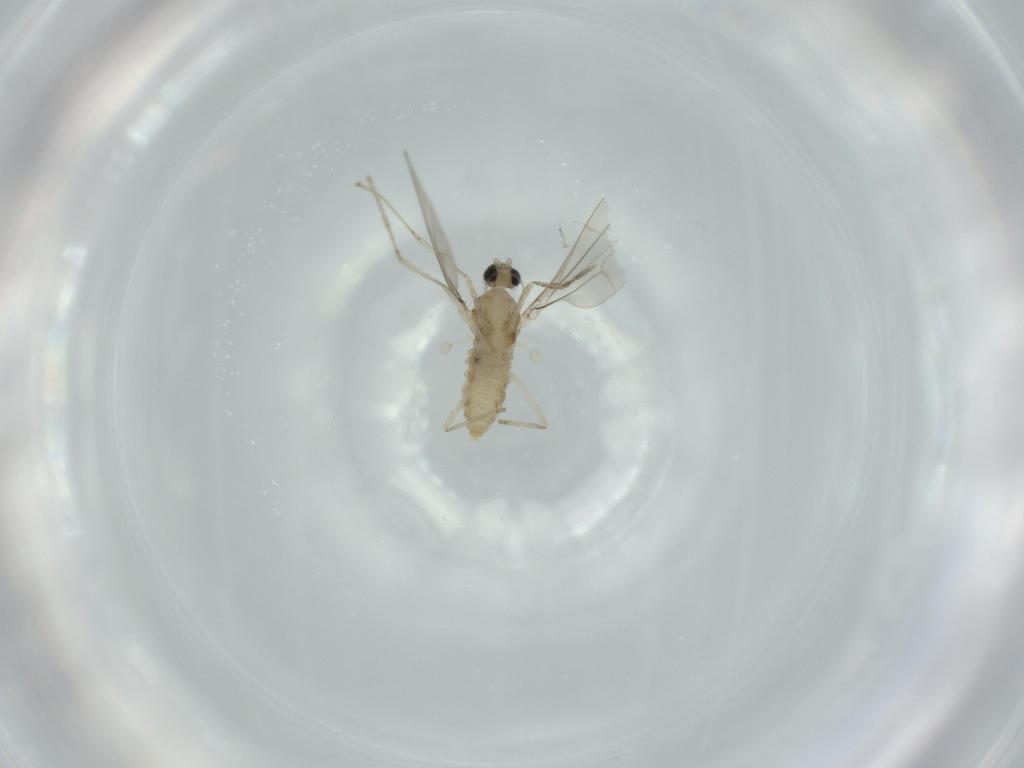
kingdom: Animalia
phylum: Arthropoda
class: Insecta
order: Diptera
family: Cecidomyiidae
